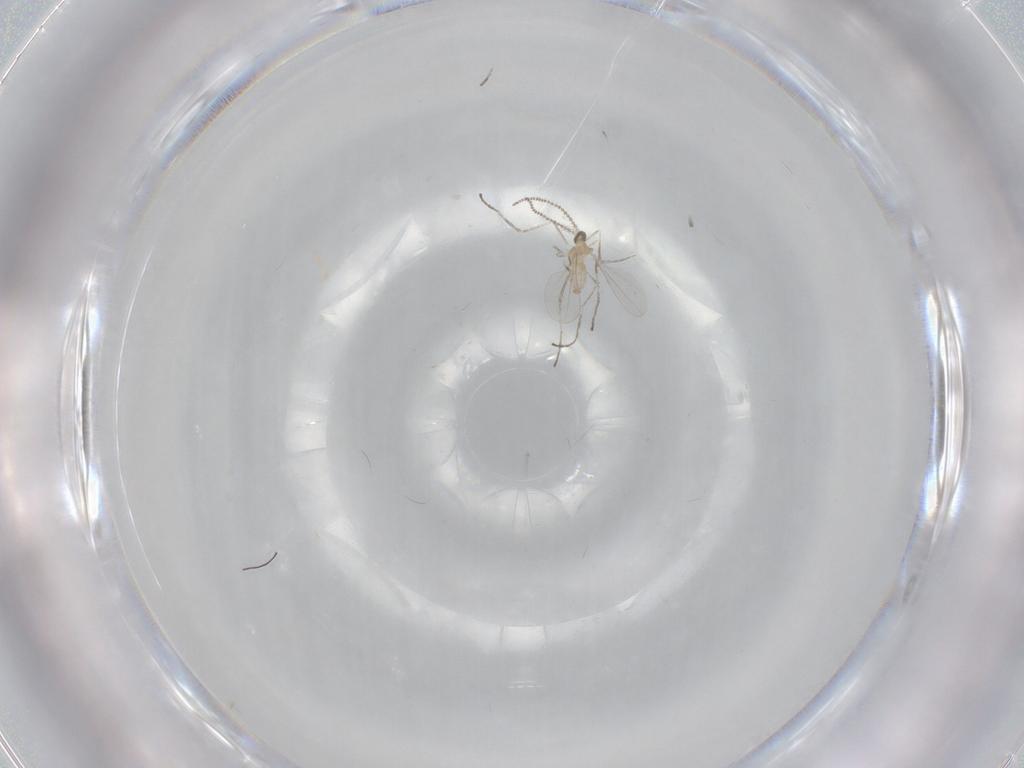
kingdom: Animalia
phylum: Arthropoda
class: Insecta
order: Diptera
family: Cecidomyiidae
